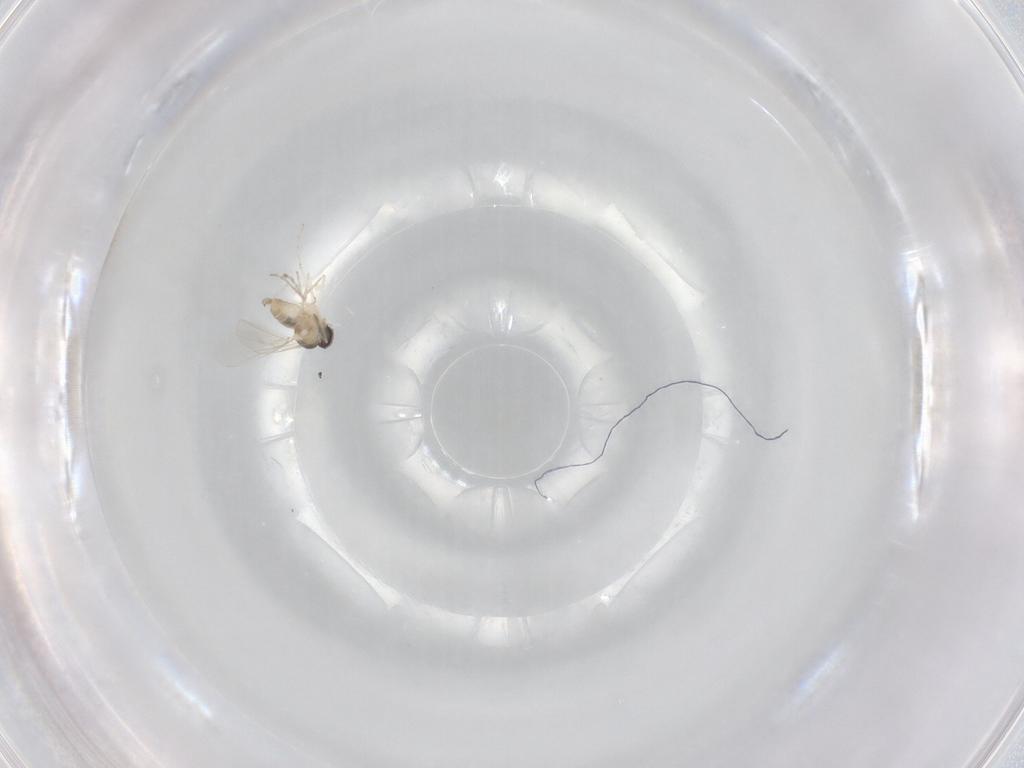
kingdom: Animalia
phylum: Arthropoda
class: Insecta
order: Diptera
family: Cecidomyiidae
